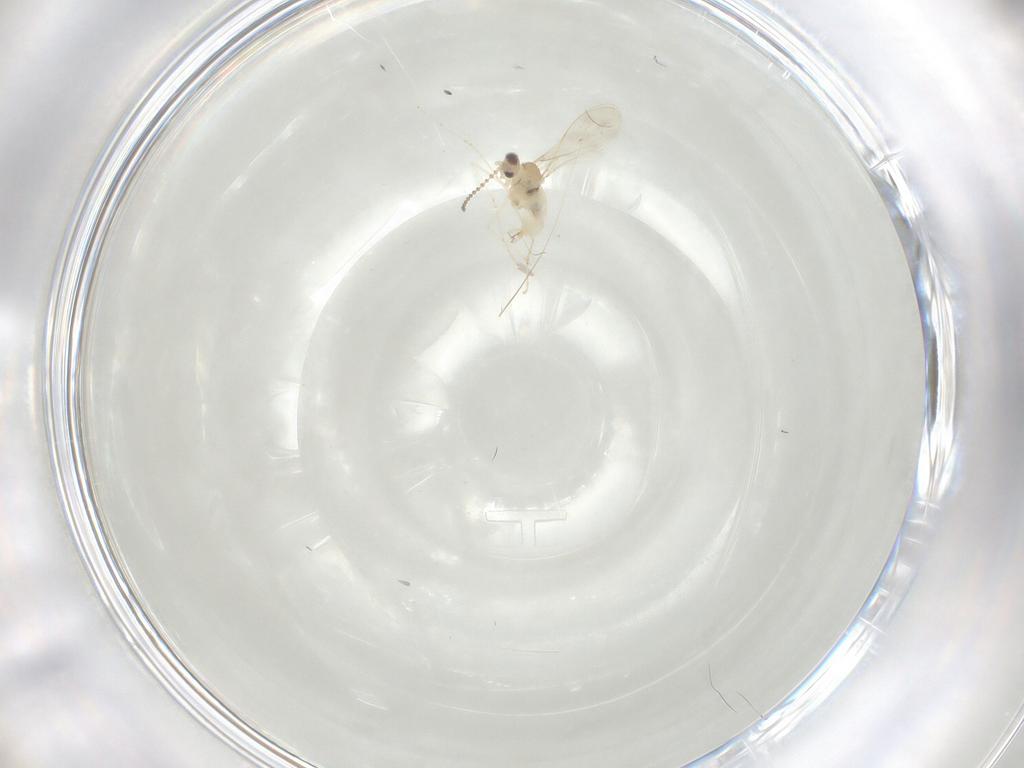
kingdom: Animalia
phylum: Arthropoda
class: Insecta
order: Diptera
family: Cecidomyiidae
